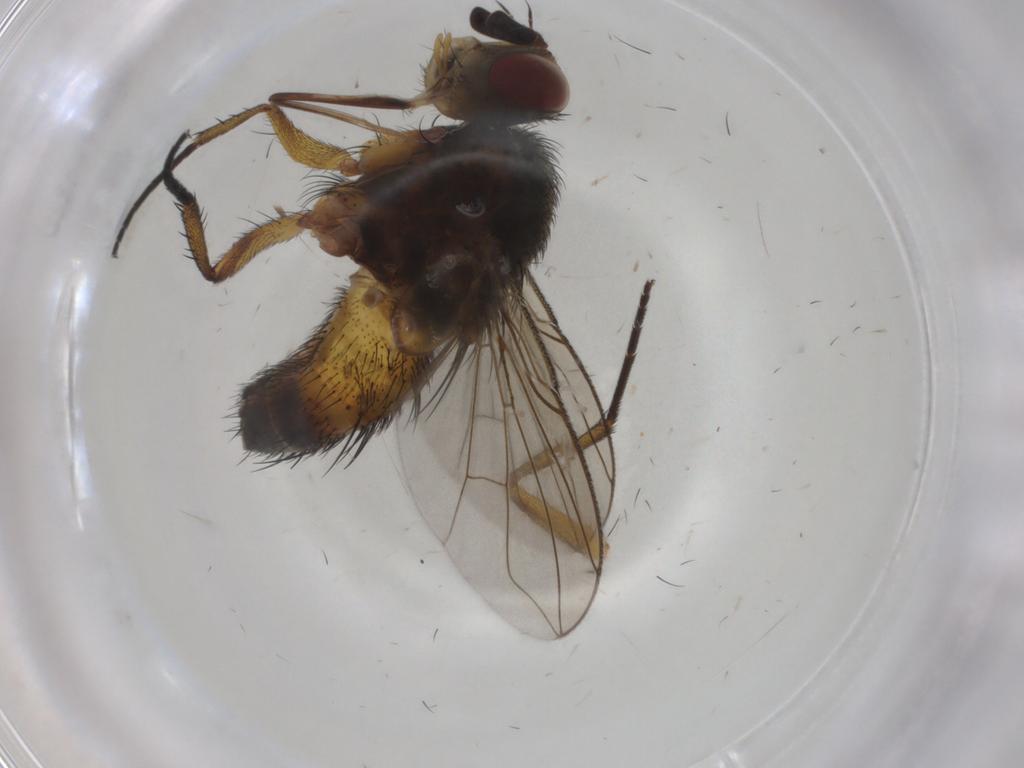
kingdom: Animalia
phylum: Arthropoda
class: Insecta
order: Diptera
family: Tachinidae
